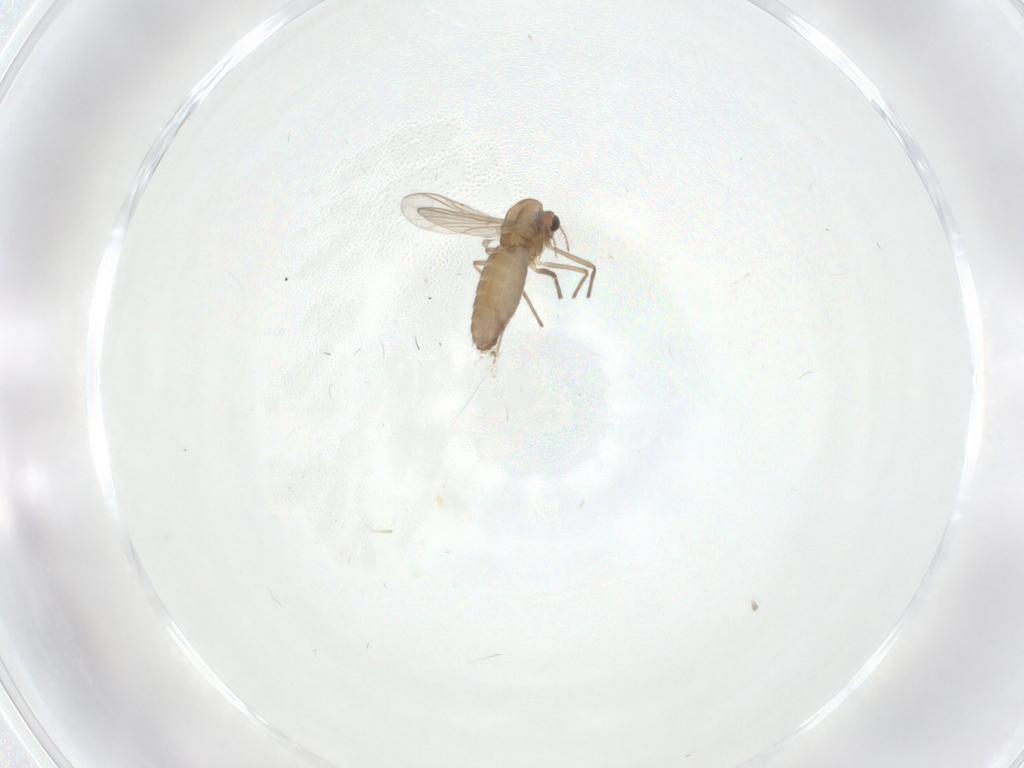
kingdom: Animalia
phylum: Arthropoda
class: Insecta
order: Diptera
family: Chironomidae
